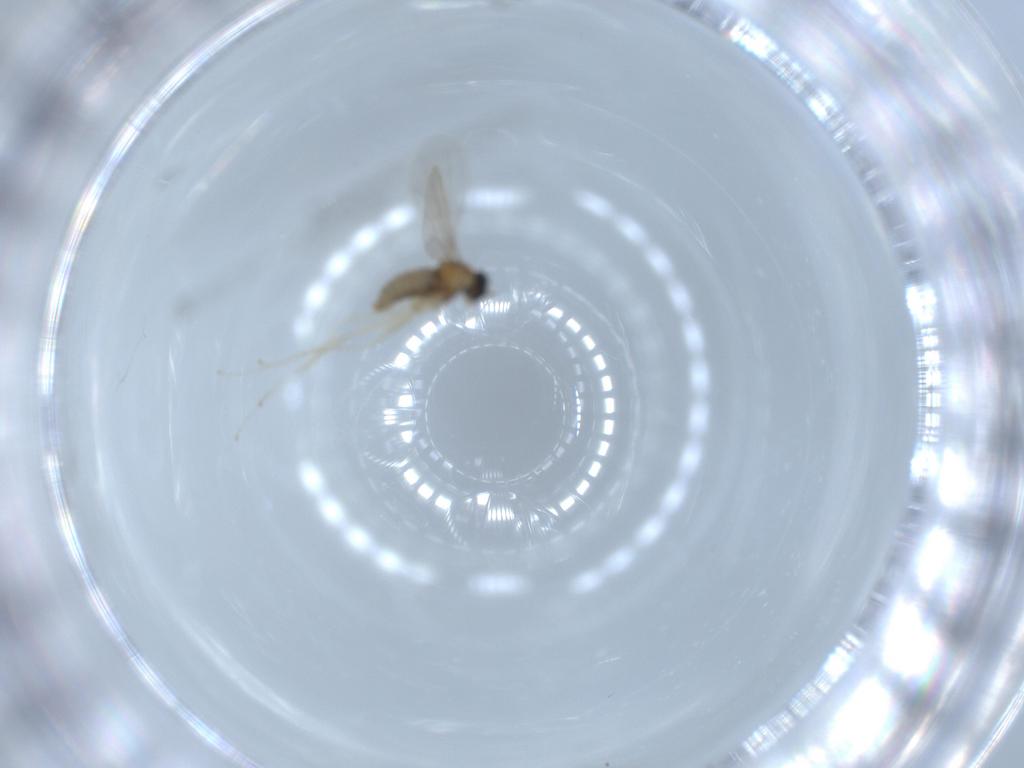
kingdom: Animalia
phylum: Arthropoda
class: Insecta
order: Diptera
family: Cecidomyiidae
